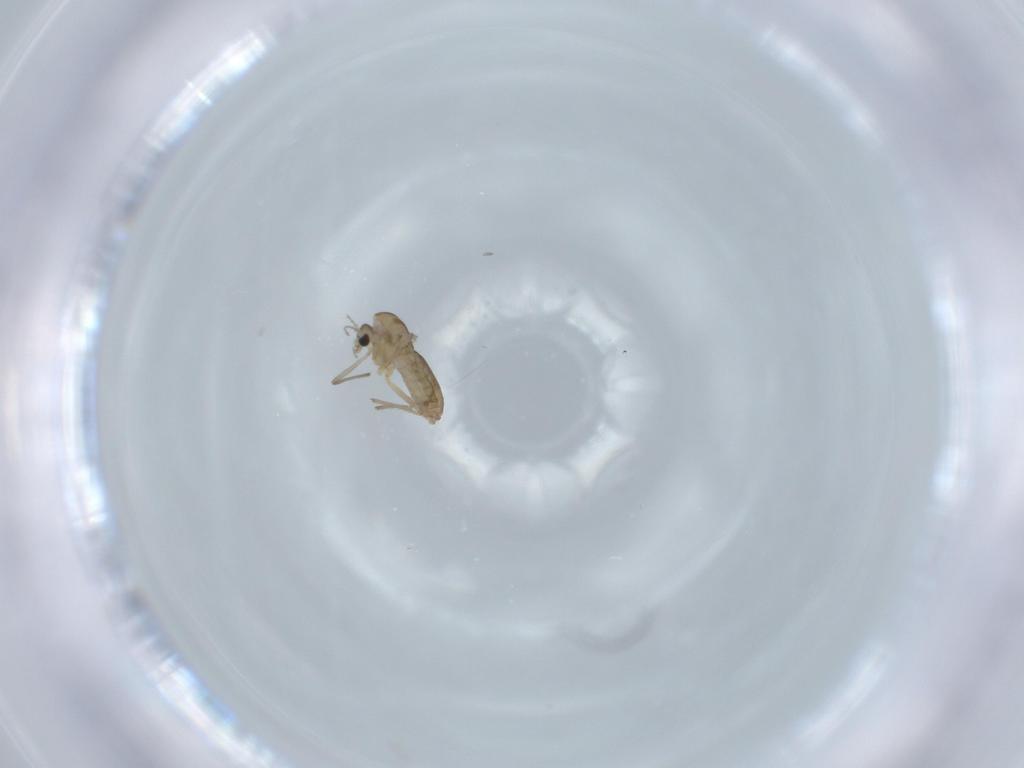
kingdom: Animalia
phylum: Arthropoda
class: Insecta
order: Diptera
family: Chironomidae
